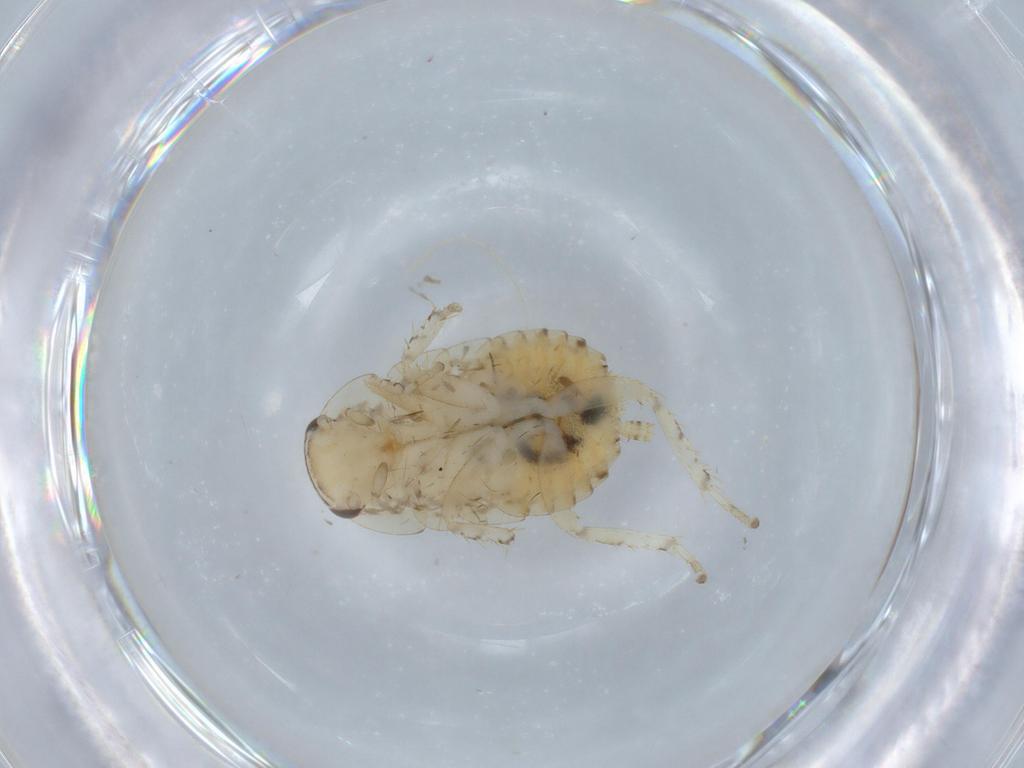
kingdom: Animalia
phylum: Arthropoda
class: Insecta
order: Blattodea
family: Ectobiidae
